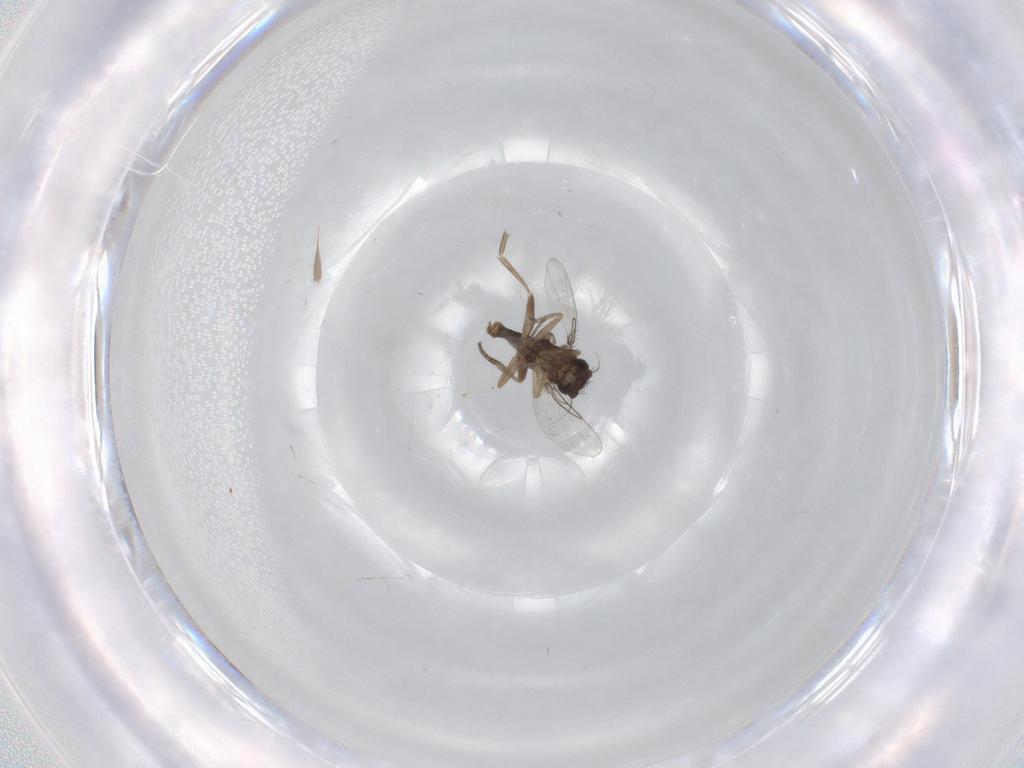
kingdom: Animalia
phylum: Arthropoda
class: Insecta
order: Diptera
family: Phoridae
